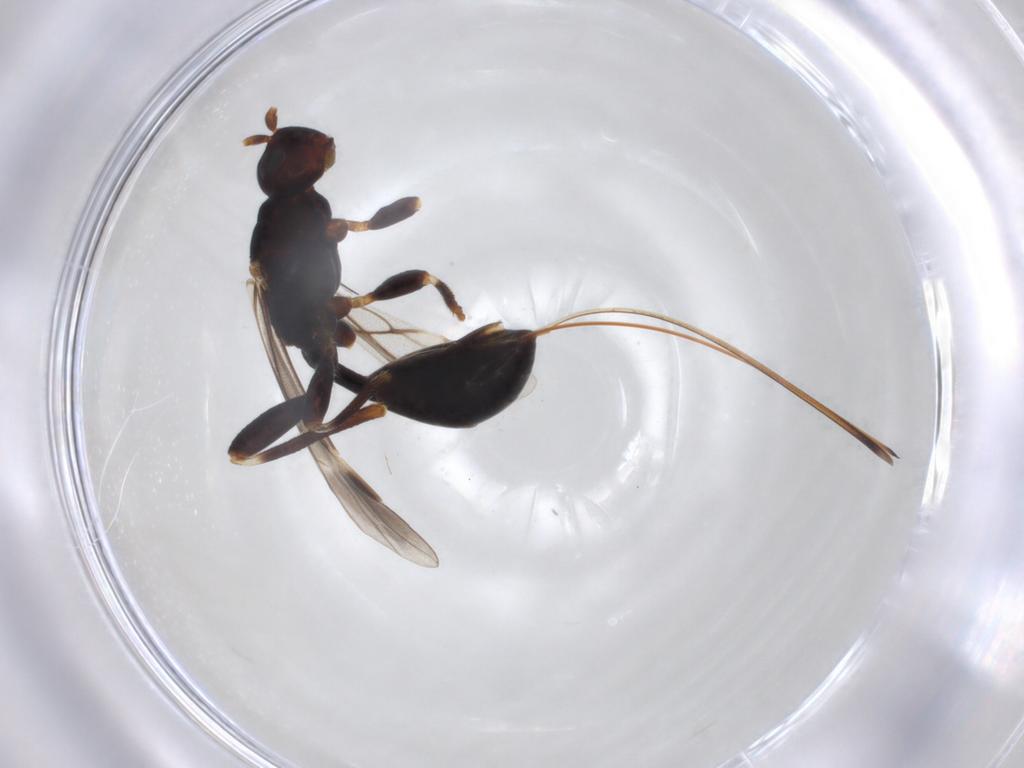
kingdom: Animalia
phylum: Arthropoda
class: Insecta
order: Hymenoptera
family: Braconidae
